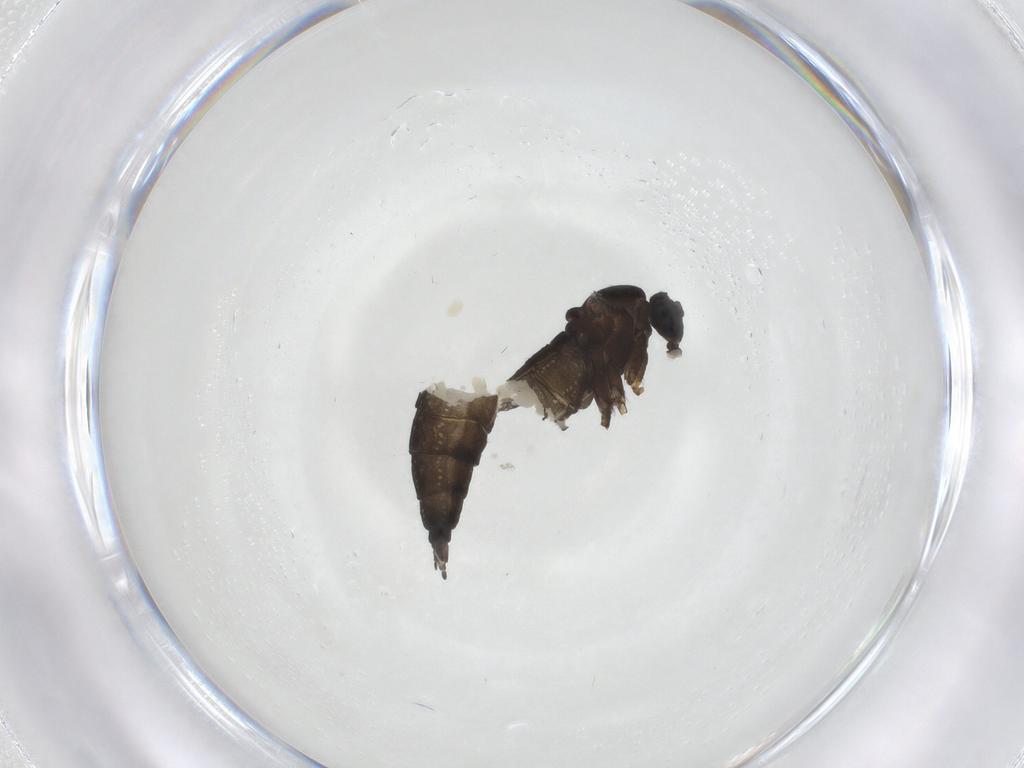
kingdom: Animalia
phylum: Arthropoda
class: Insecta
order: Diptera
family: Sciaridae
